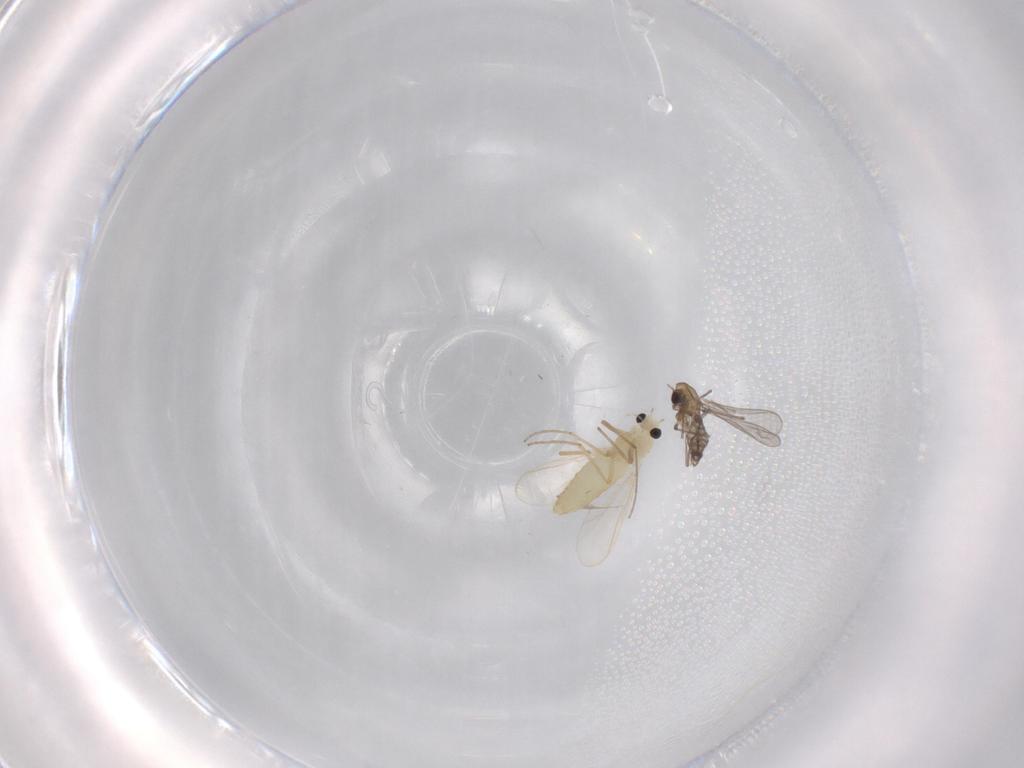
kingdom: Animalia
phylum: Arthropoda
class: Insecta
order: Diptera
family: Chironomidae
